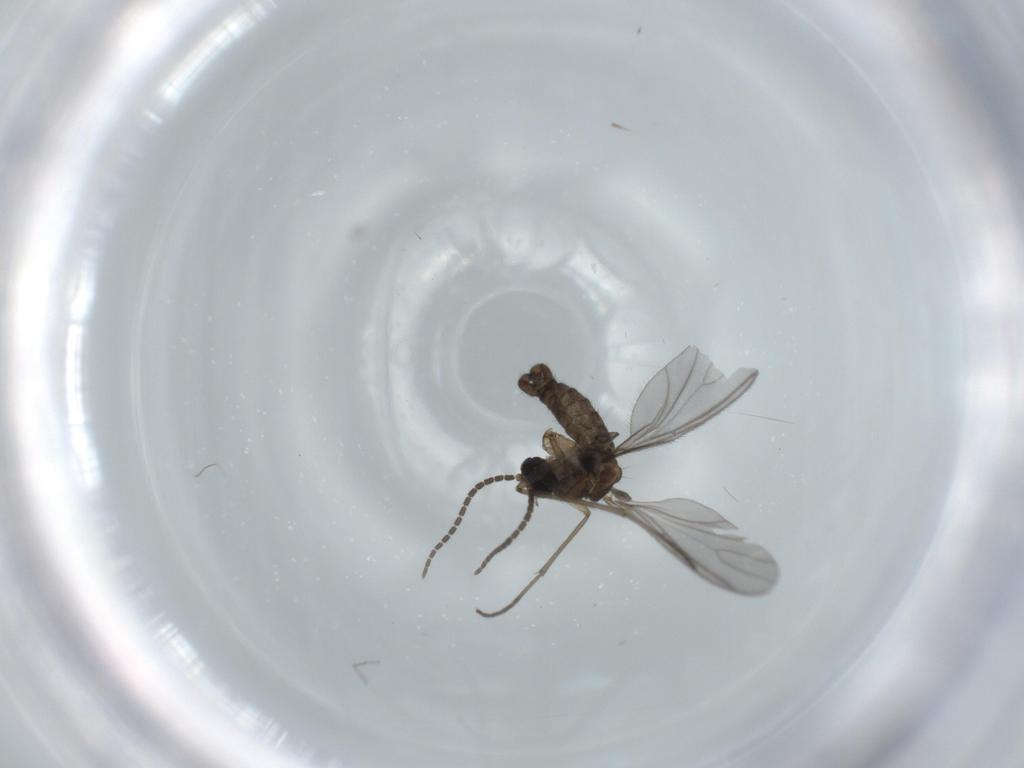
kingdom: Animalia
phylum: Arthropoda
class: Insecta
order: Diptera
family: Sciaridae
